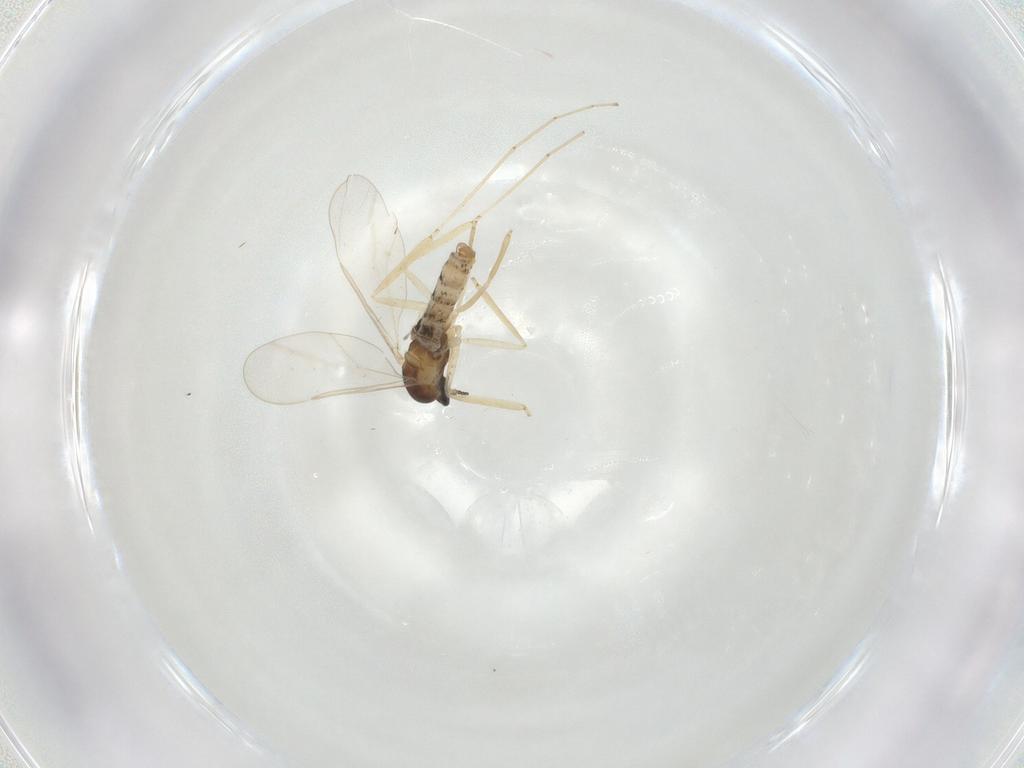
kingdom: Animalia
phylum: Arthropoda
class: Insecta
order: Diptera
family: Cecidomyiidae
